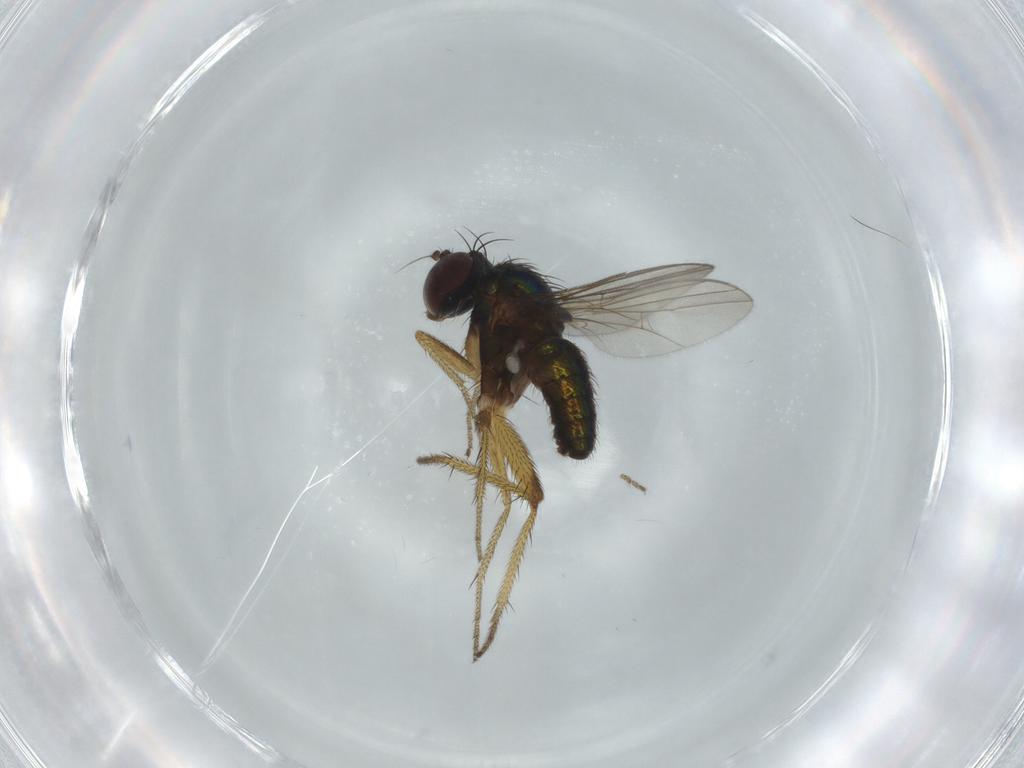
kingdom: Animalia
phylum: Arthropoda
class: Insecta
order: Diptera
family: Dolichopodidae
